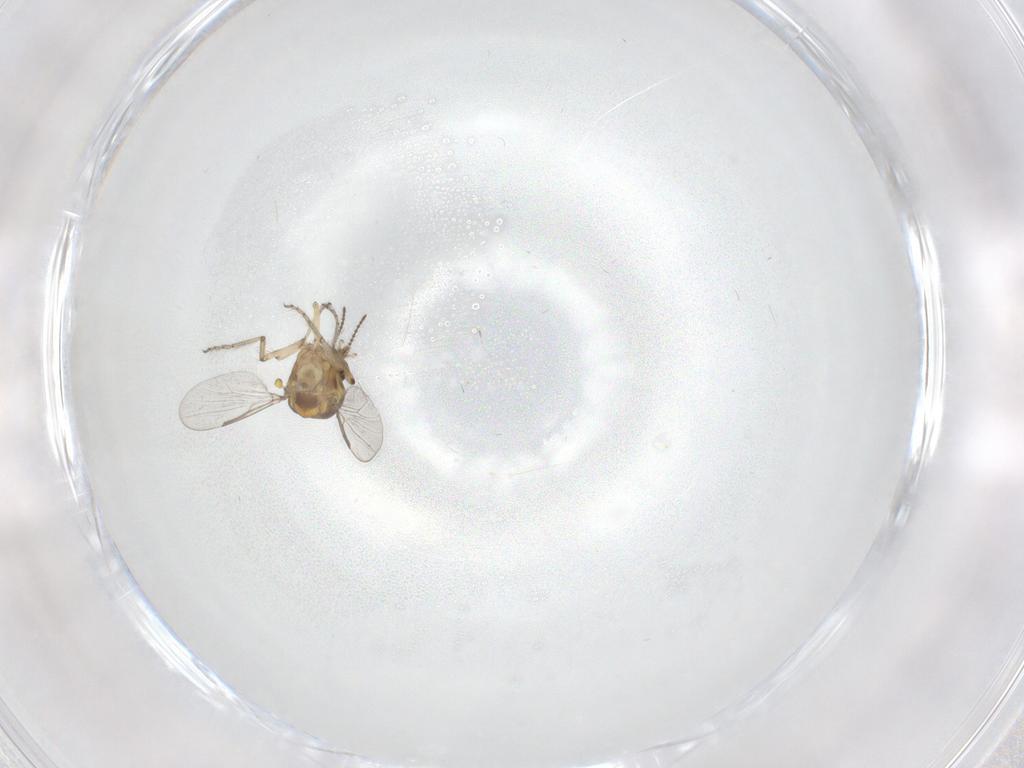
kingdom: Animalia
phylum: Arthropoda
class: Insecta
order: Diptera
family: Ceratopogonidae
